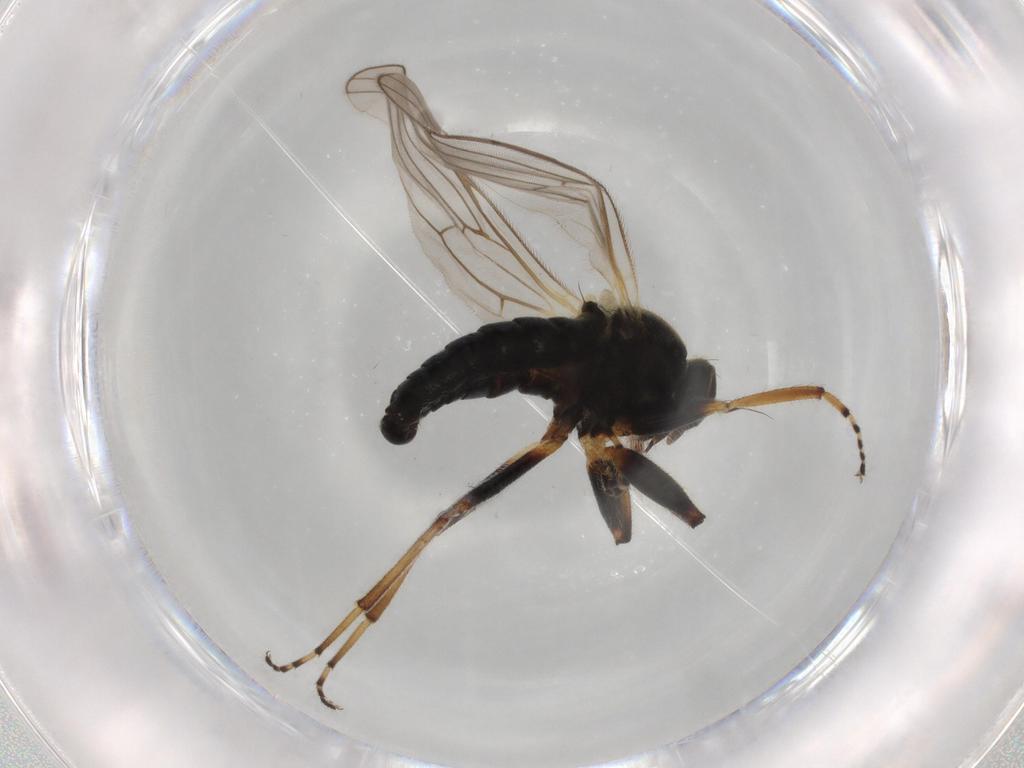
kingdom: Animalia
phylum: Arthropoda
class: Insecta
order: Diptera
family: Hybotidae
